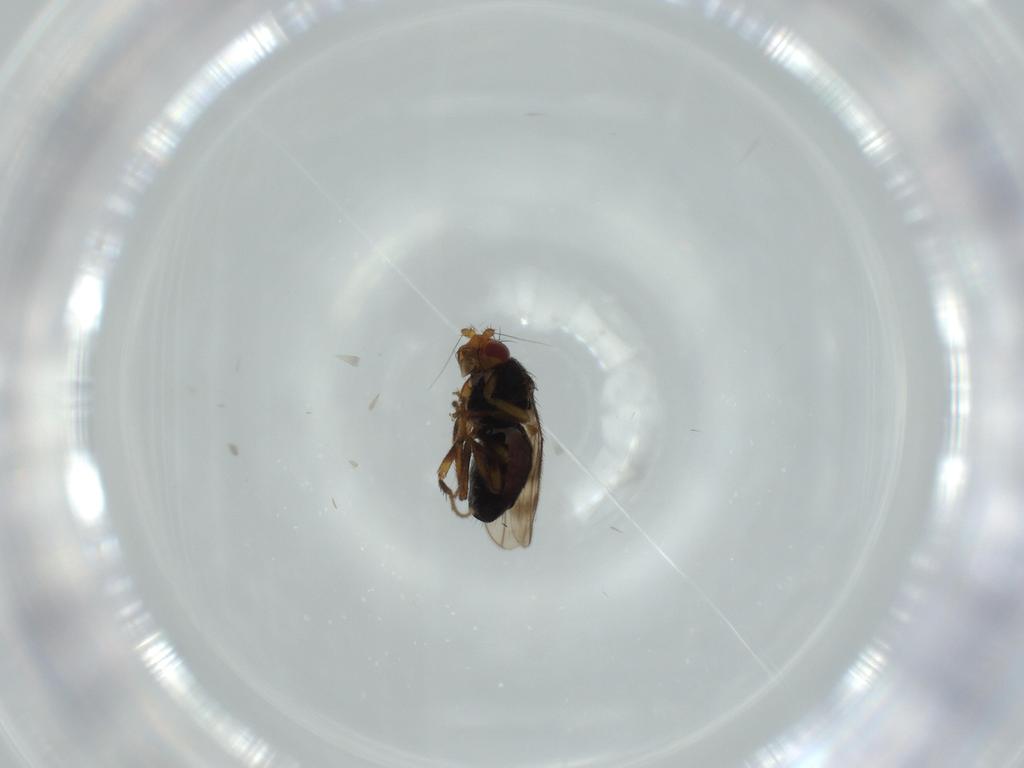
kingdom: Animalia
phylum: Arthropoda
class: Insecta
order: Diptera
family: Sphaeroceridae
